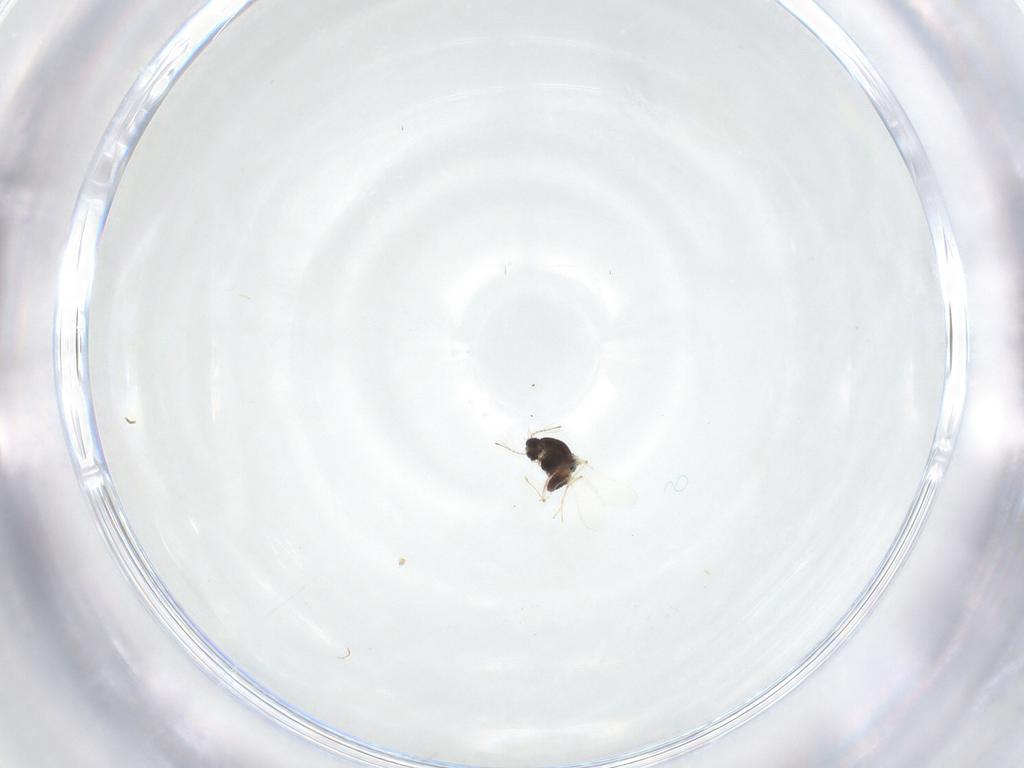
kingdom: Animalia
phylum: Arthropoda
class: Insecta
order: Diptera
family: Chironomidae
